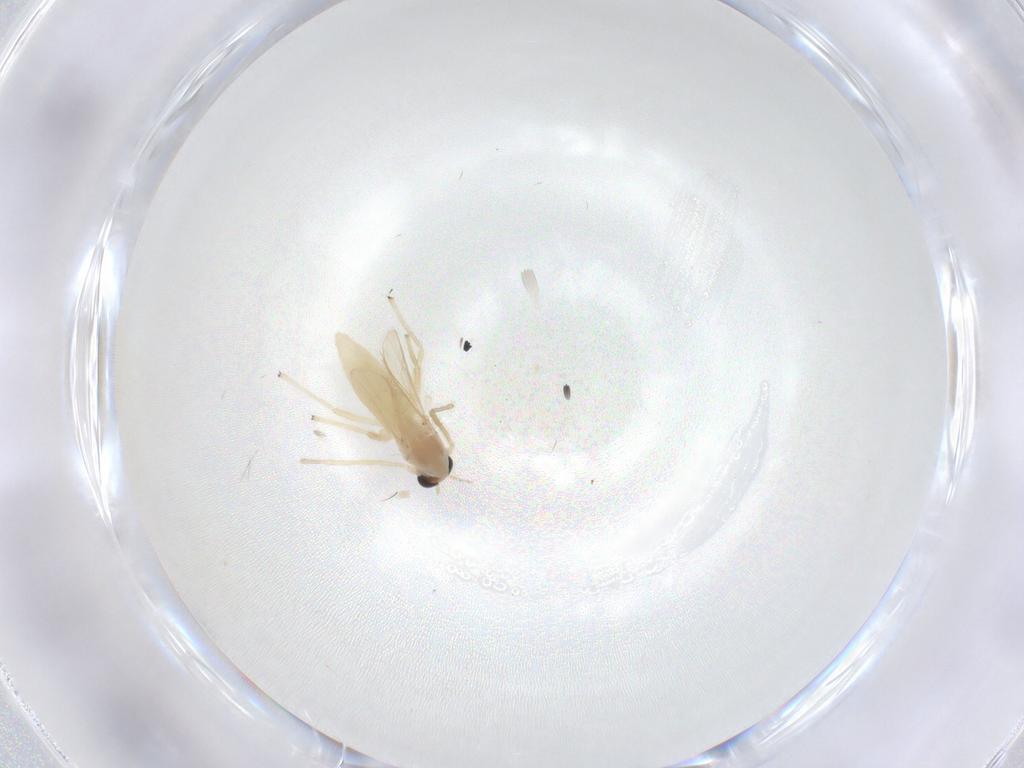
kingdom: Animalia
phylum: Arthropoda
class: Insecta
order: Diptera
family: Chironomidae
